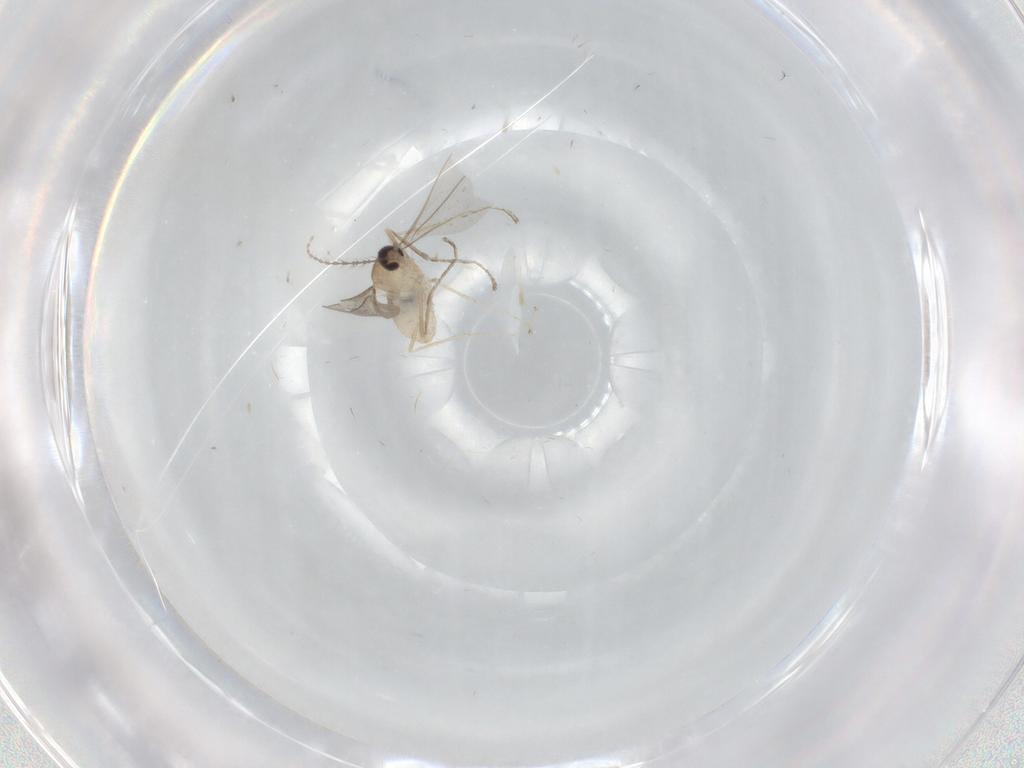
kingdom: Animalia
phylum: Arthropoda
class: Insecta
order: Diptera
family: Cecidomyiidae
